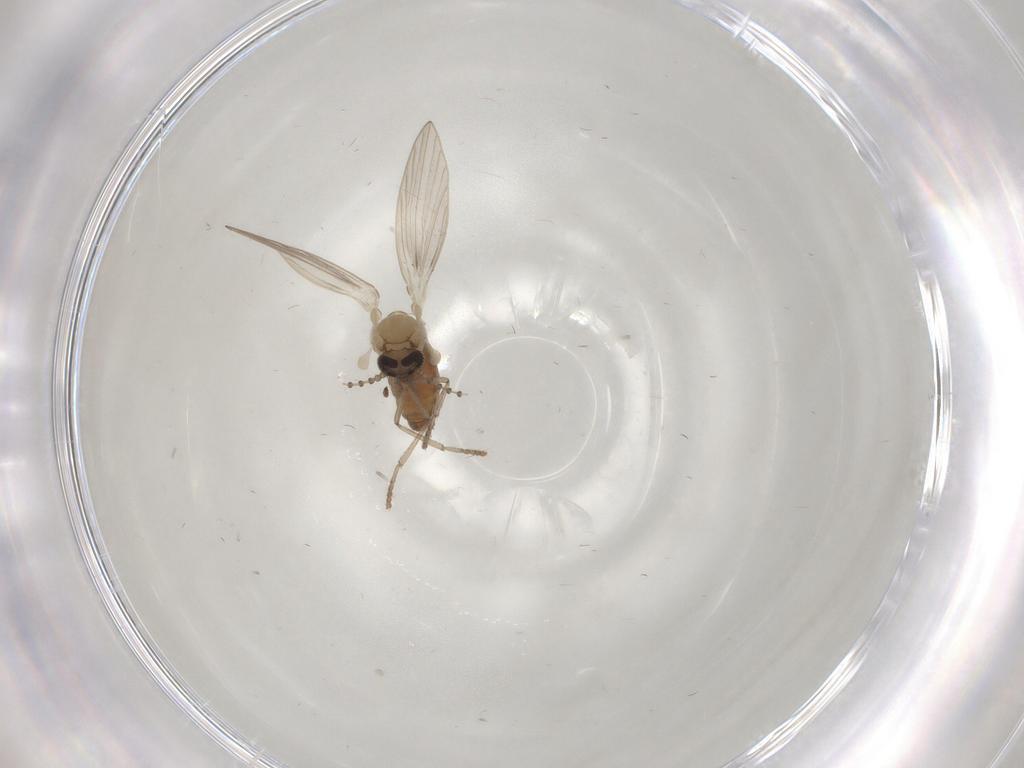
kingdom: Animalia
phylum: Arthropoda
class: Insecta
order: Diptera
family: Psychodidae
